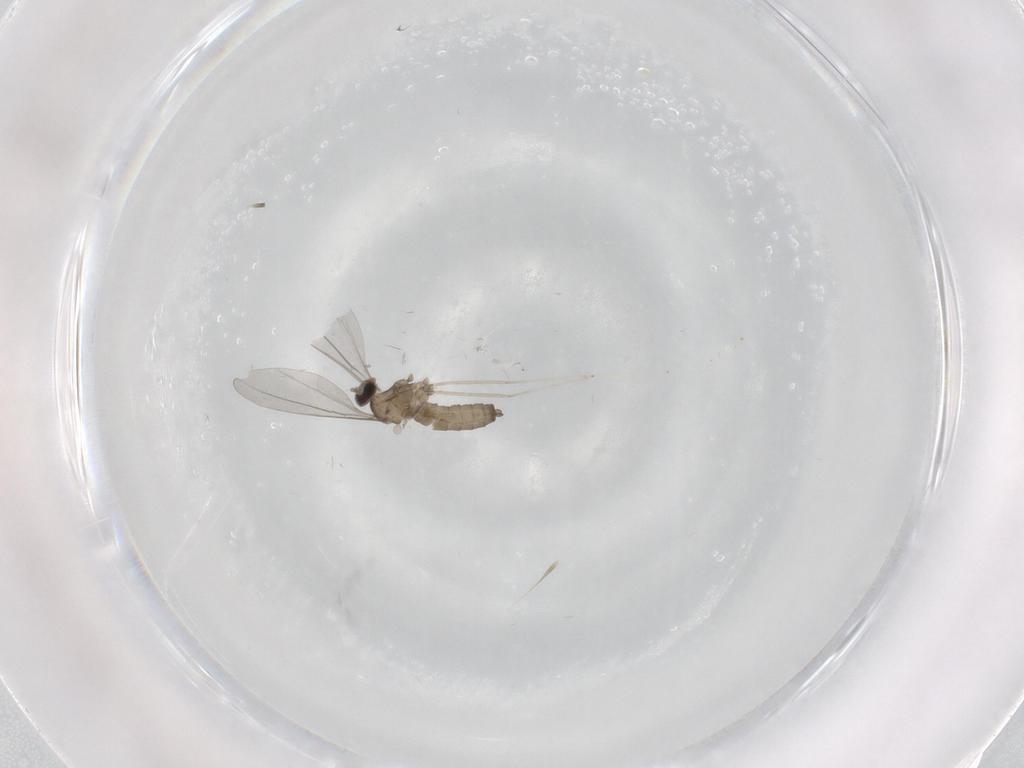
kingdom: Animalia
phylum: Arthropoda
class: Insecta
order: Diptera
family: Cecidomyiidae
